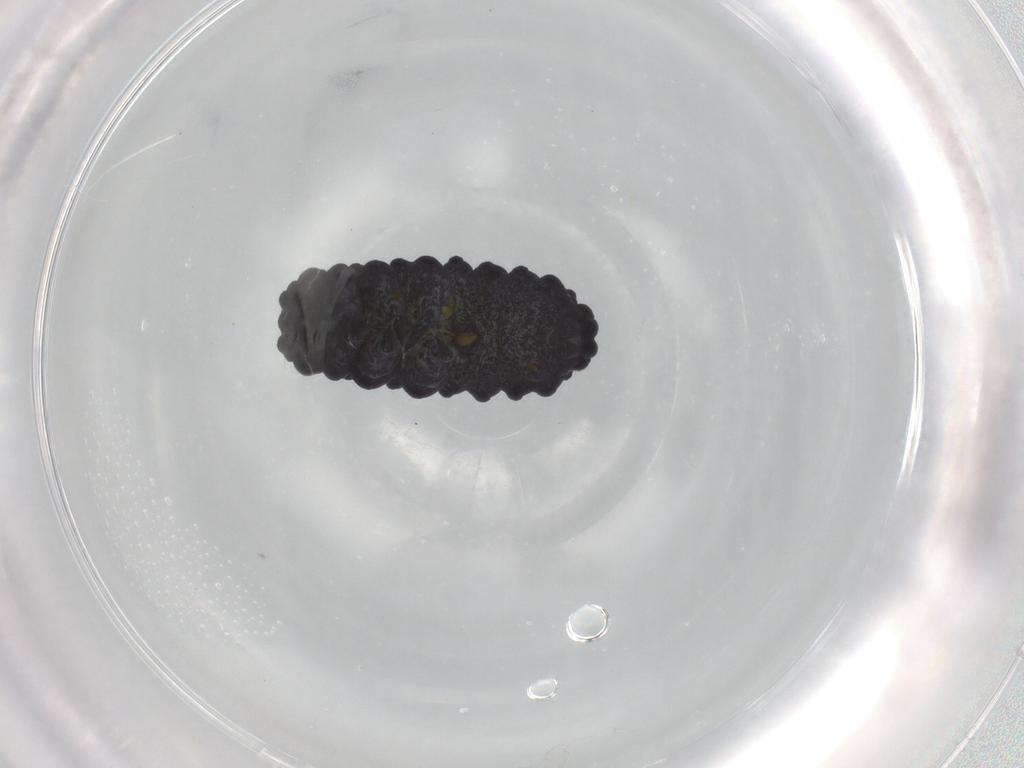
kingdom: Animalia
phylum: Arthropoda
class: Collembola
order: Poduromorpha
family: Neanuridae
